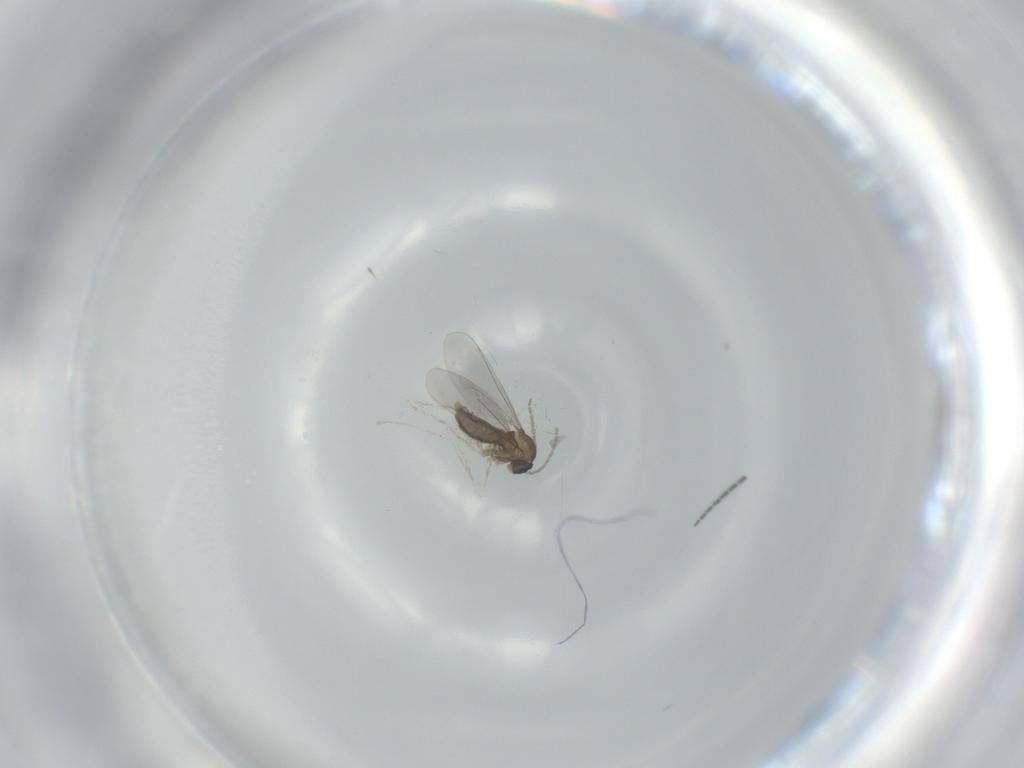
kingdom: Animalia
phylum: Arthropoda
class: Insecta
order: Diptera
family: Cecidomyiidae
